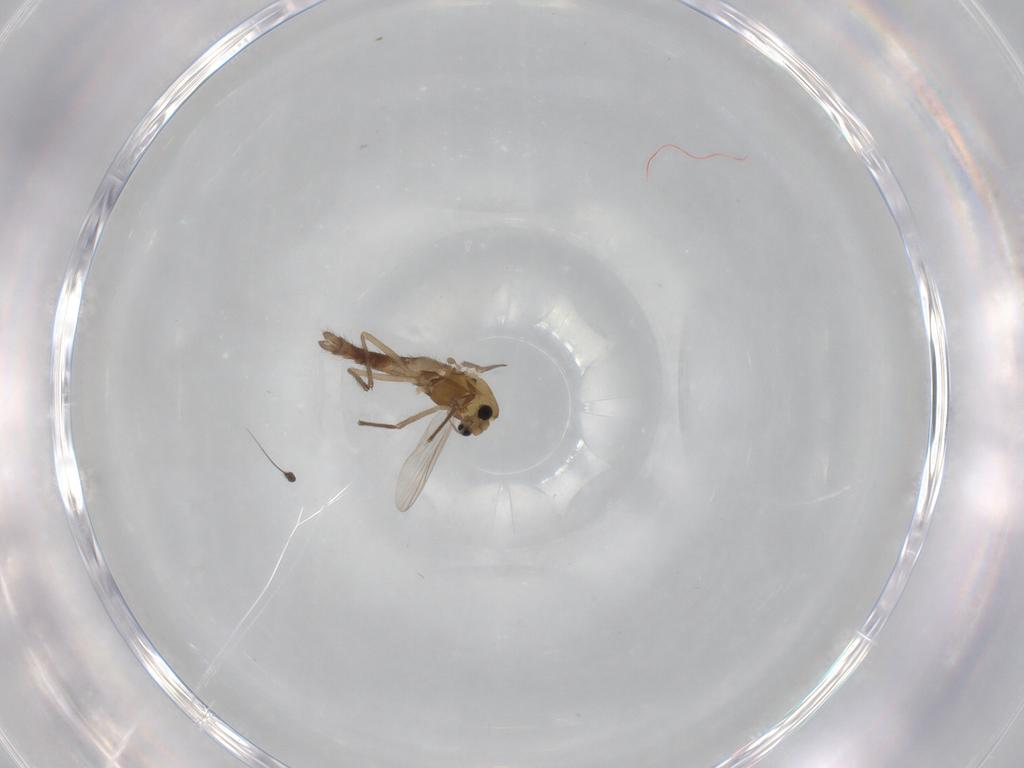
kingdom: Animalia
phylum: Arthropoda
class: Insecta
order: Diptera
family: Chironomidae
